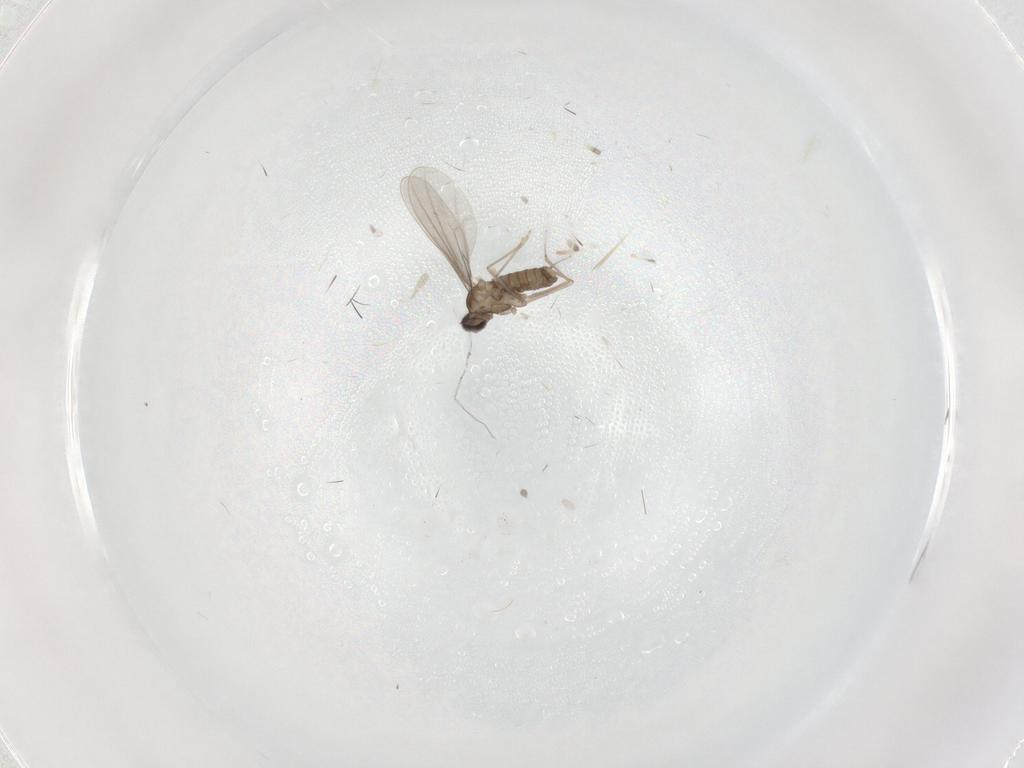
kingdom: Animalia
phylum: Arthropoda
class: Insecta
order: Diptera
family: Cecidomyiidae
